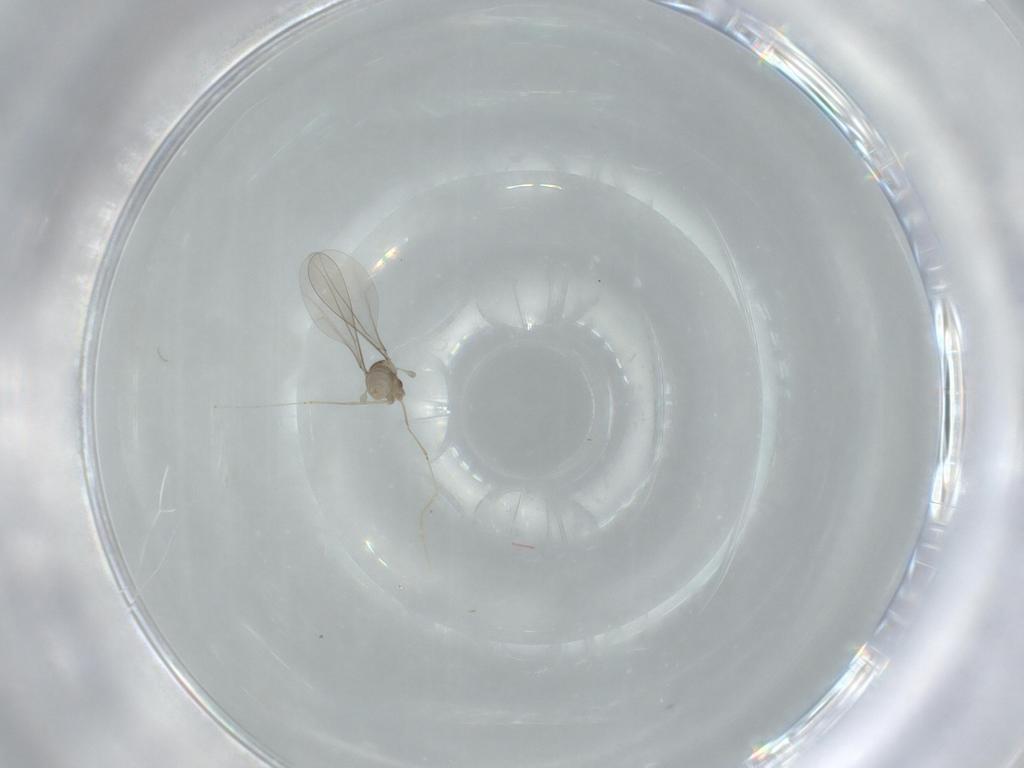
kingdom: Animalia
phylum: Arthropoda
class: Insecta
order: Diptera
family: Cecidomyiidae
